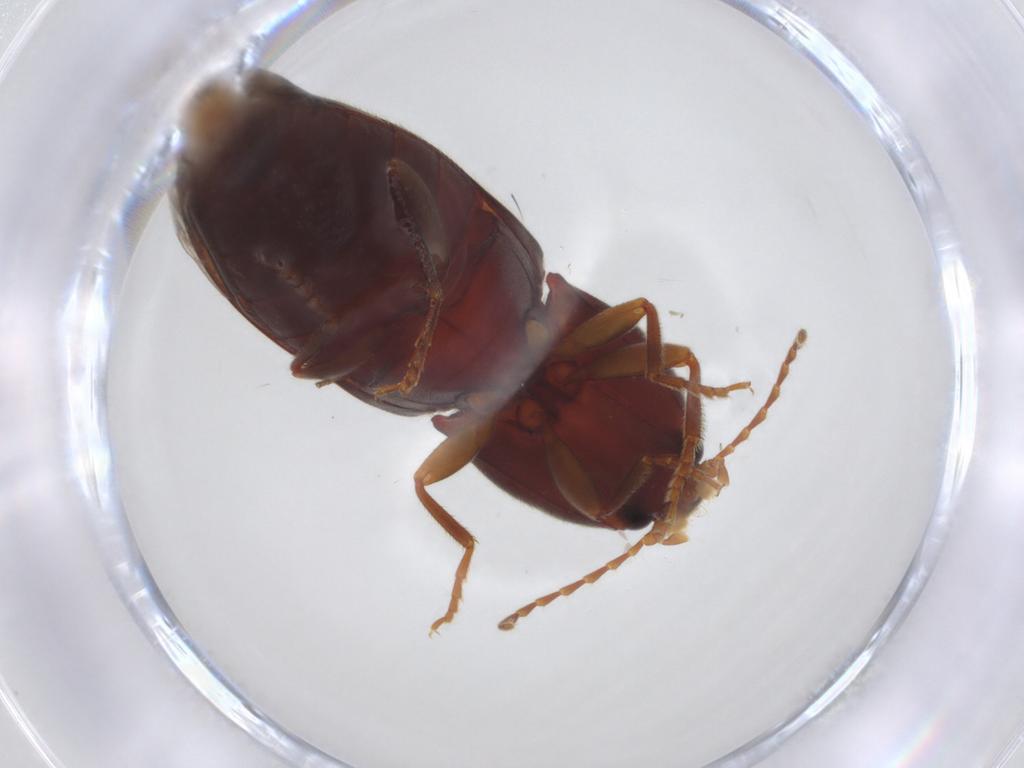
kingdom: Animalia
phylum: Arthropoda
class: Insecta
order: Coleoptera
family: Elateridae
